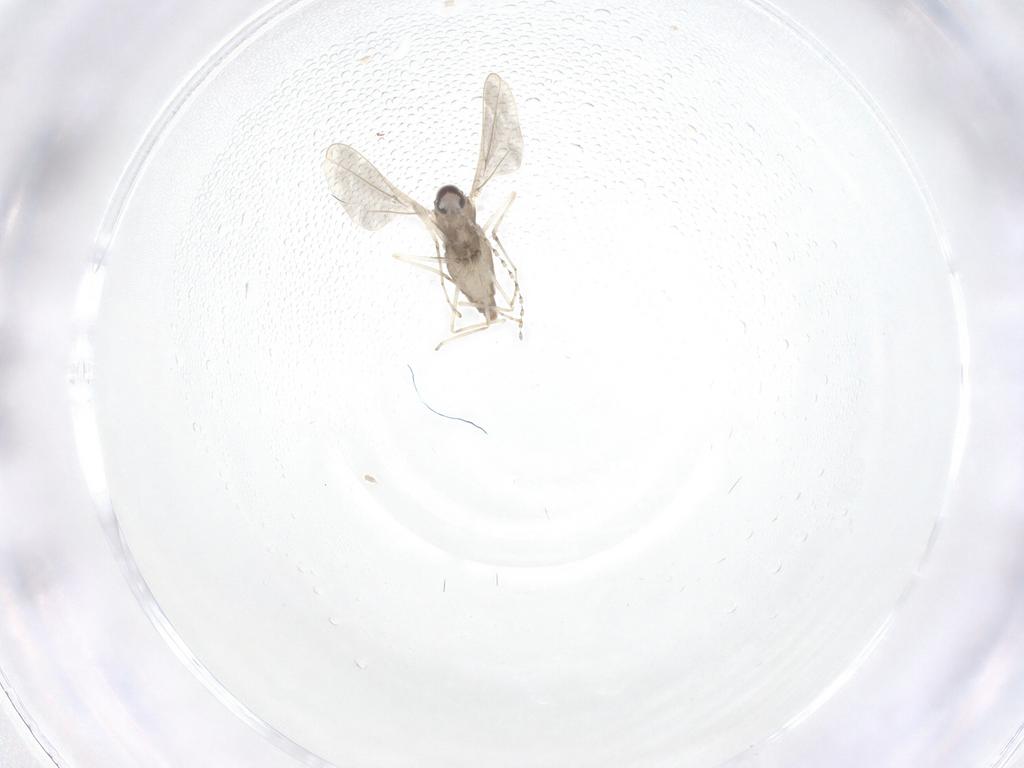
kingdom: Animalia
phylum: Arthropoda
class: Insecta
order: Diptera
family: Cecidomyiidae
